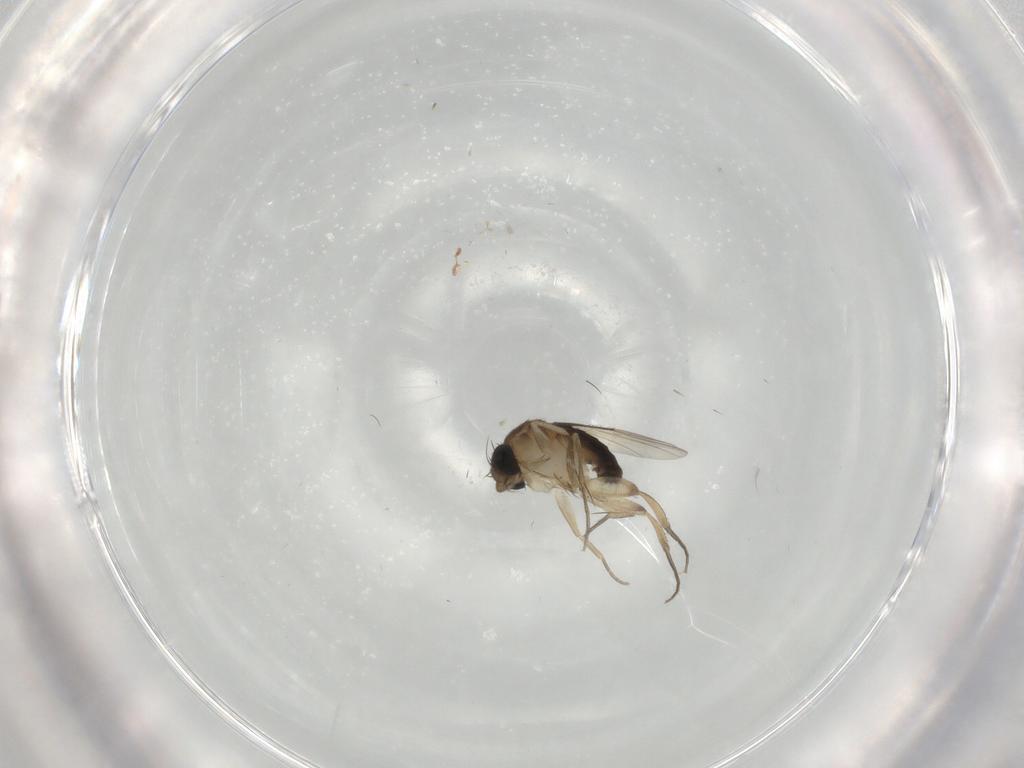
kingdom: Animalia
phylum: Arthropoda
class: Insecta
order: Diptera
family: Phoridae
